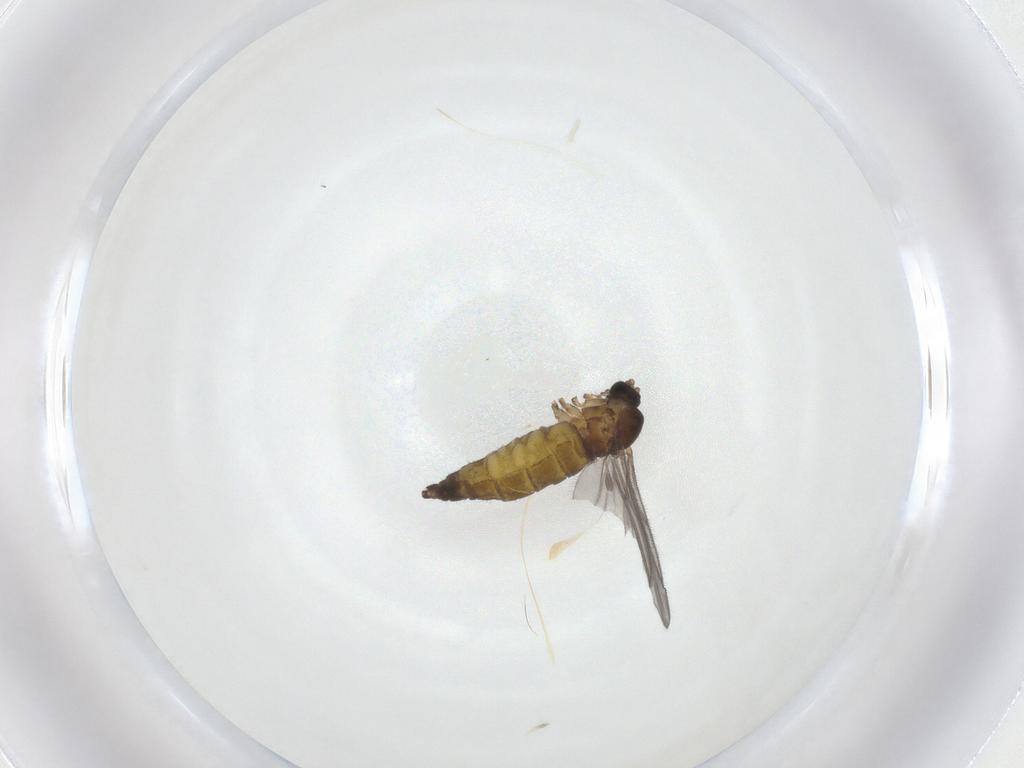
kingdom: Animalia
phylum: Arthropoda
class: Insecta
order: Diptera
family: Sciaridae
